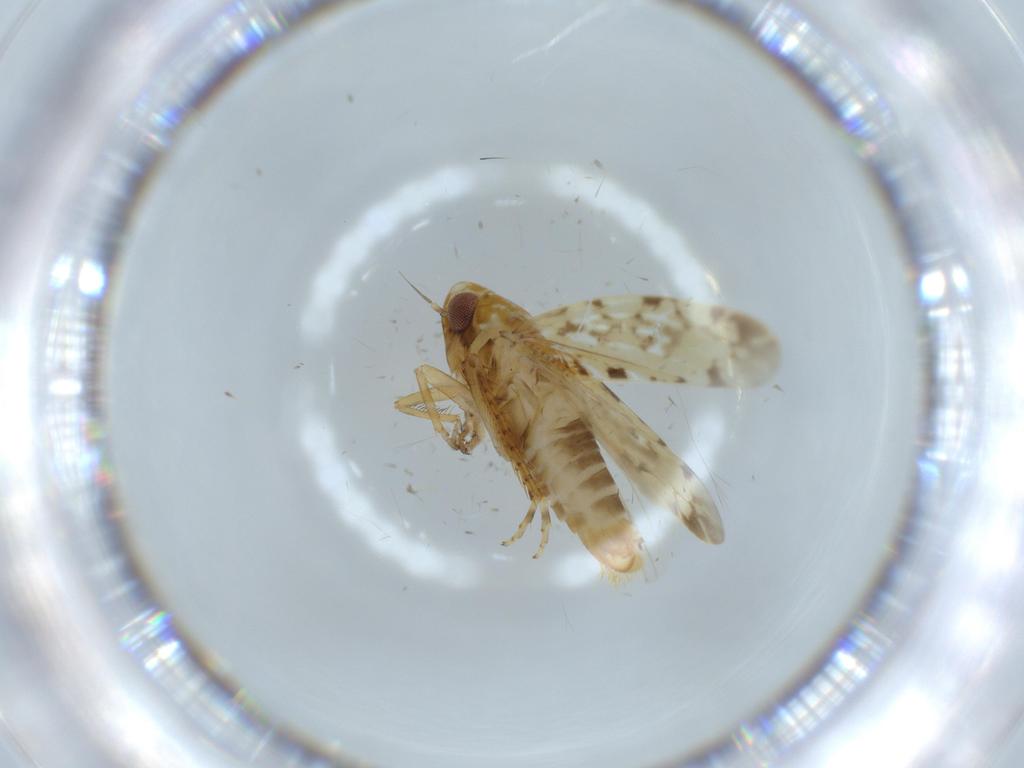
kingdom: Animalia
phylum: Arthropoda
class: Insecta
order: Hemiptera
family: Cicadellidae
